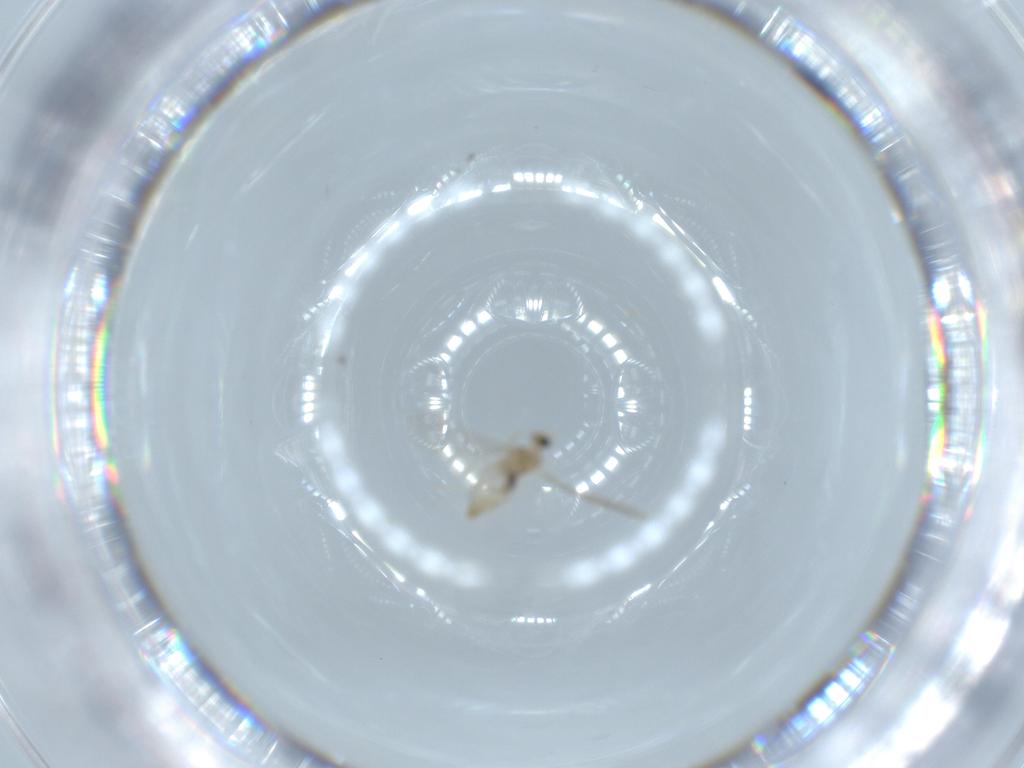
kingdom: Animalia
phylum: Arthropoda
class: Insecta
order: Diptera
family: Cecidomyiidae
